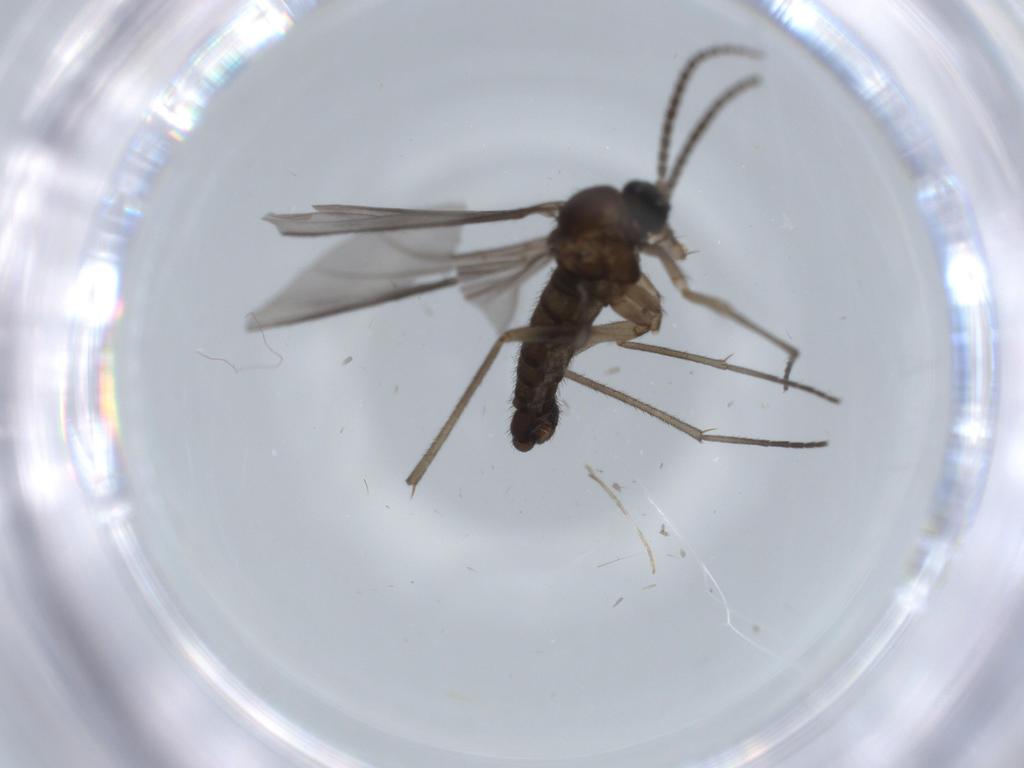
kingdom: Animalia
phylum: Arthropoda
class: Insecta
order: Diptera
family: Sciaridae
